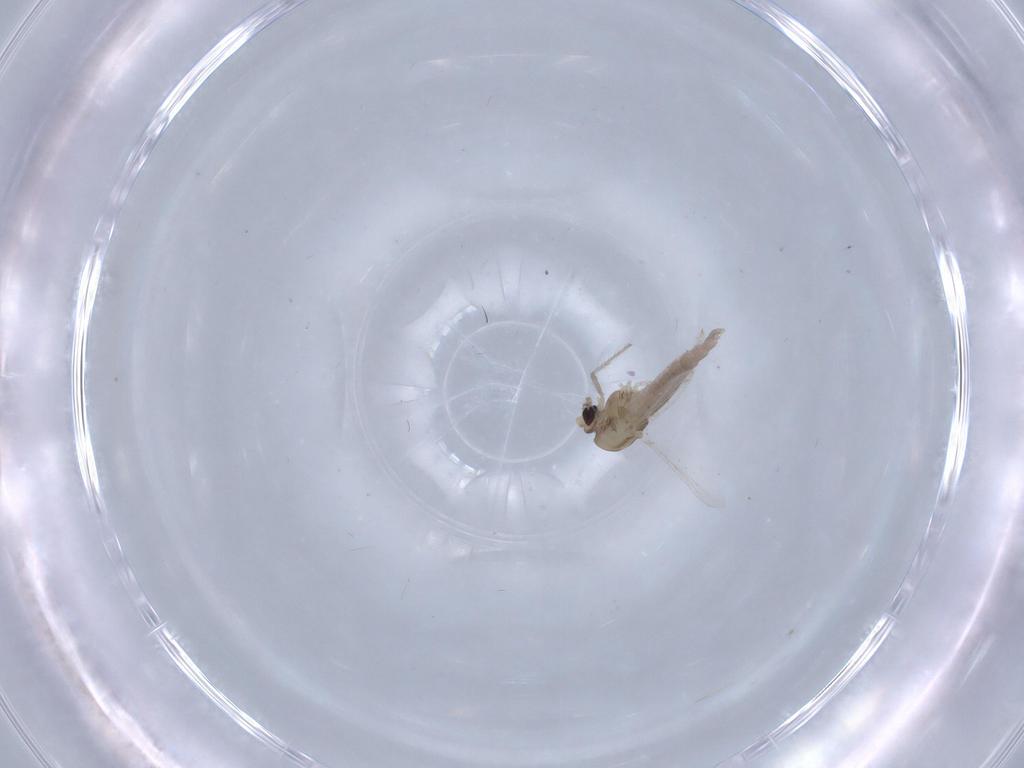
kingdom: Animalia
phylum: Arthropoda
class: Insecta
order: Diptera
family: Chironomidae
